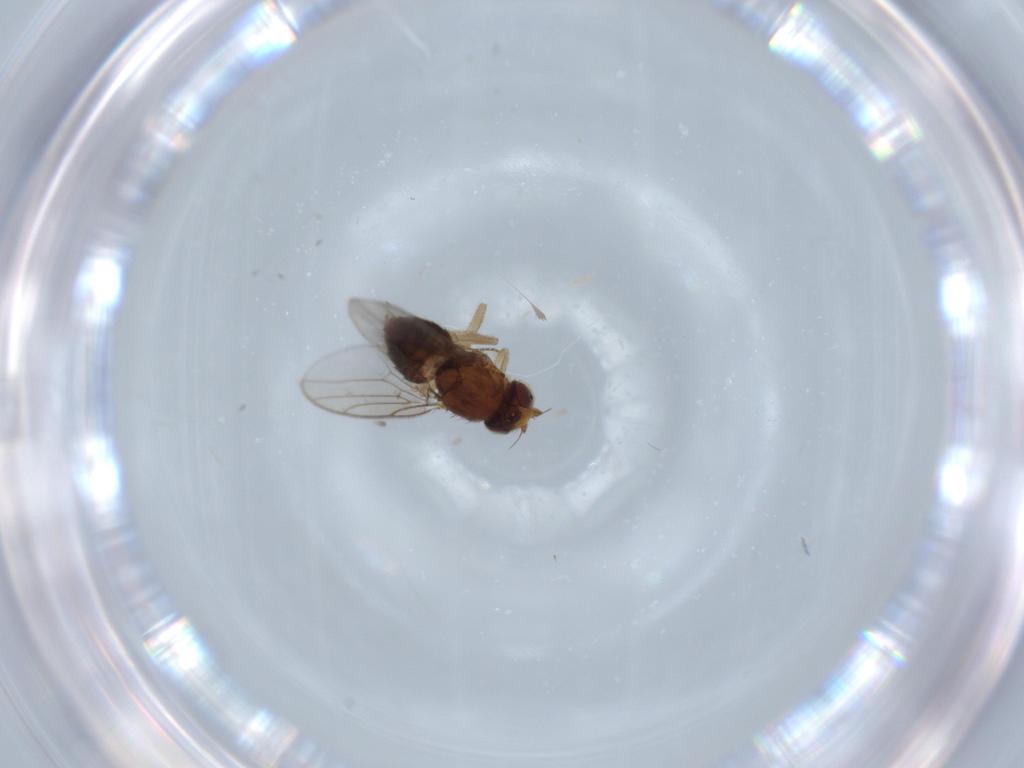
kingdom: Animalia
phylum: Arthropoda
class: Insecta
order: Diptera
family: Chloropidae
